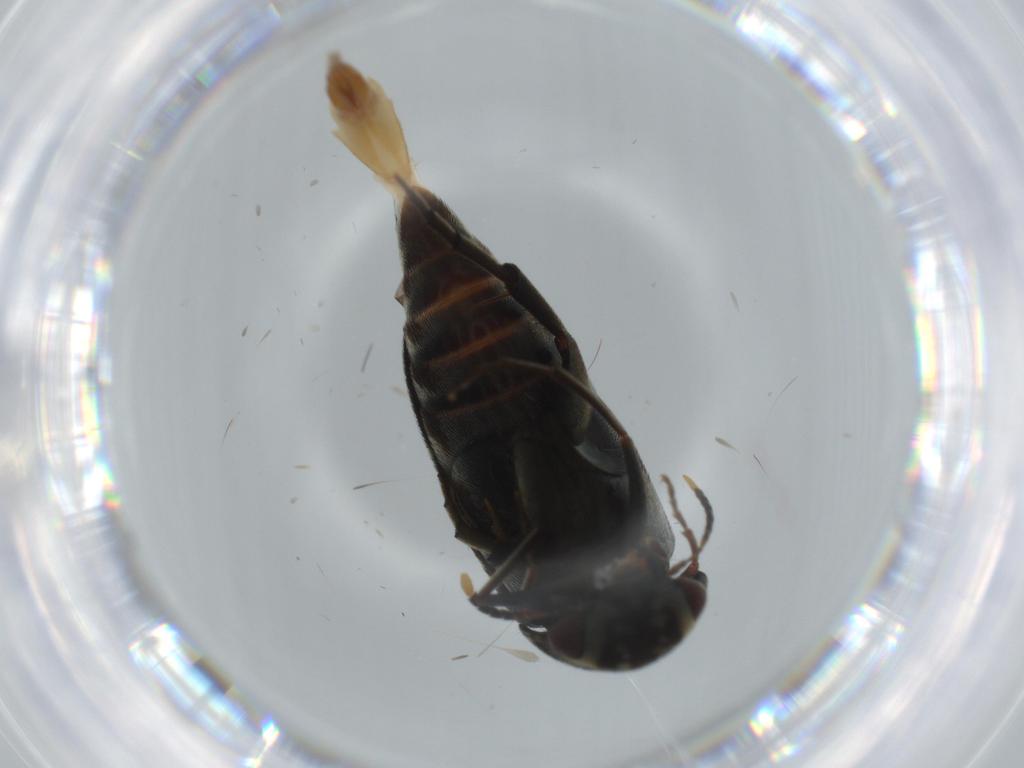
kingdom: Animalia
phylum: Arthropoda
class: Insecta
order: Coleoptera
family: Mordellidae
